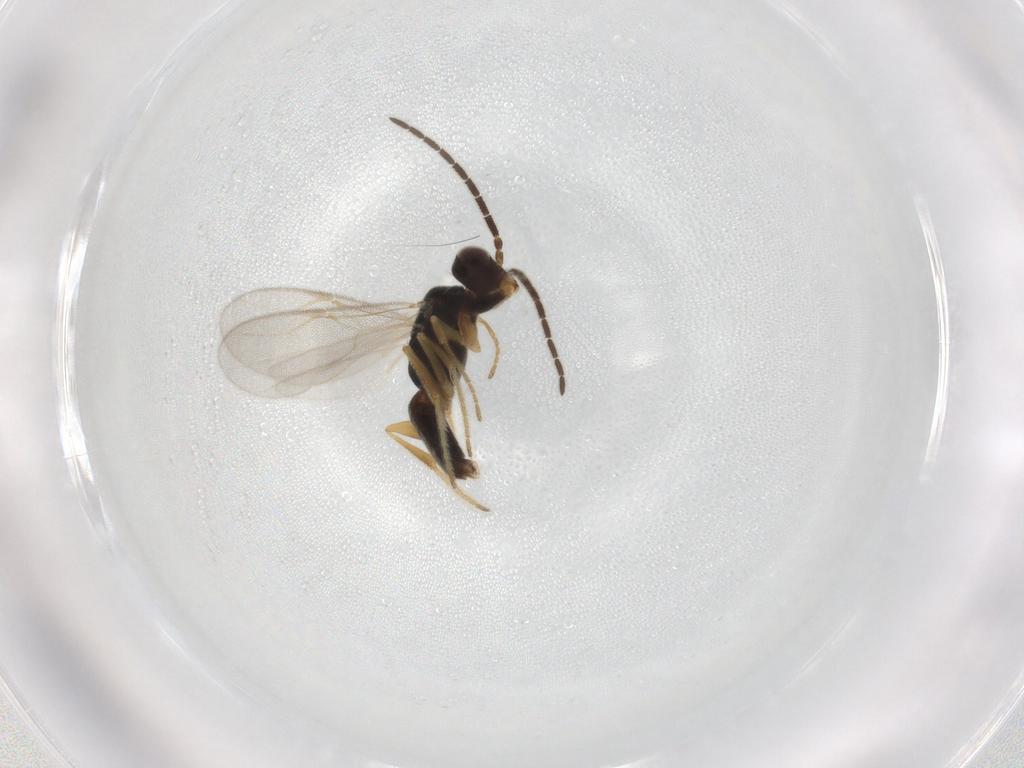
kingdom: Animalia
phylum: Arthropoda
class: Insecta
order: Hymenoptera
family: Dryinidae
